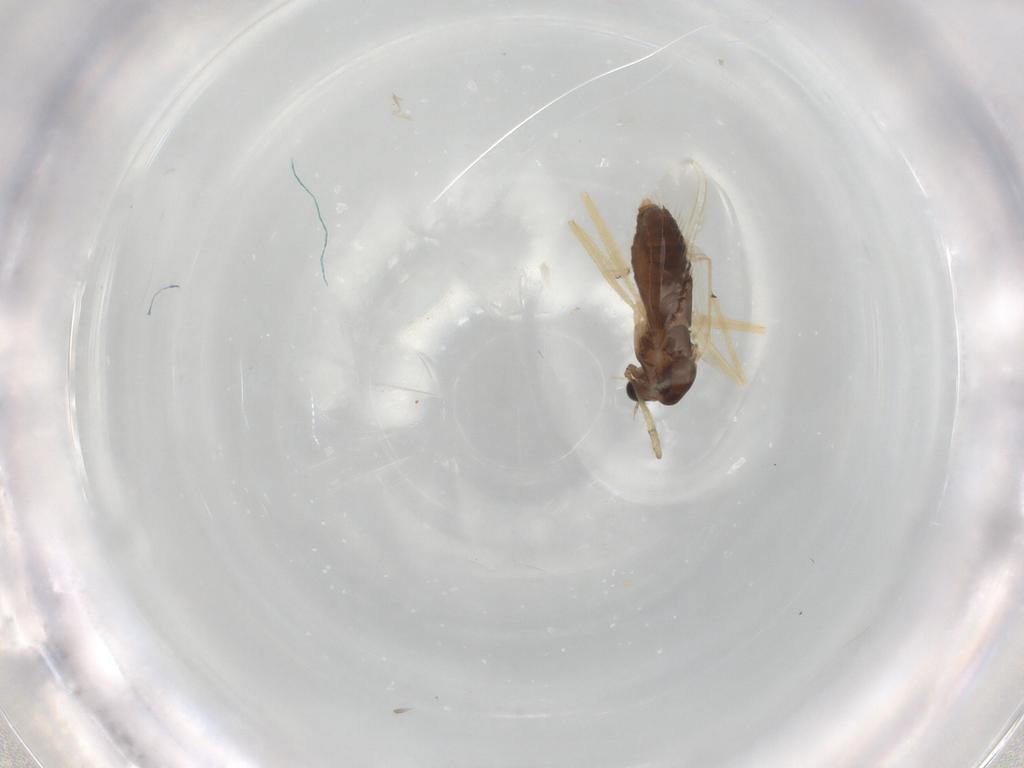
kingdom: Animalia
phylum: Arthropoda
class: Insecta
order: Diptera
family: Chironomidae
